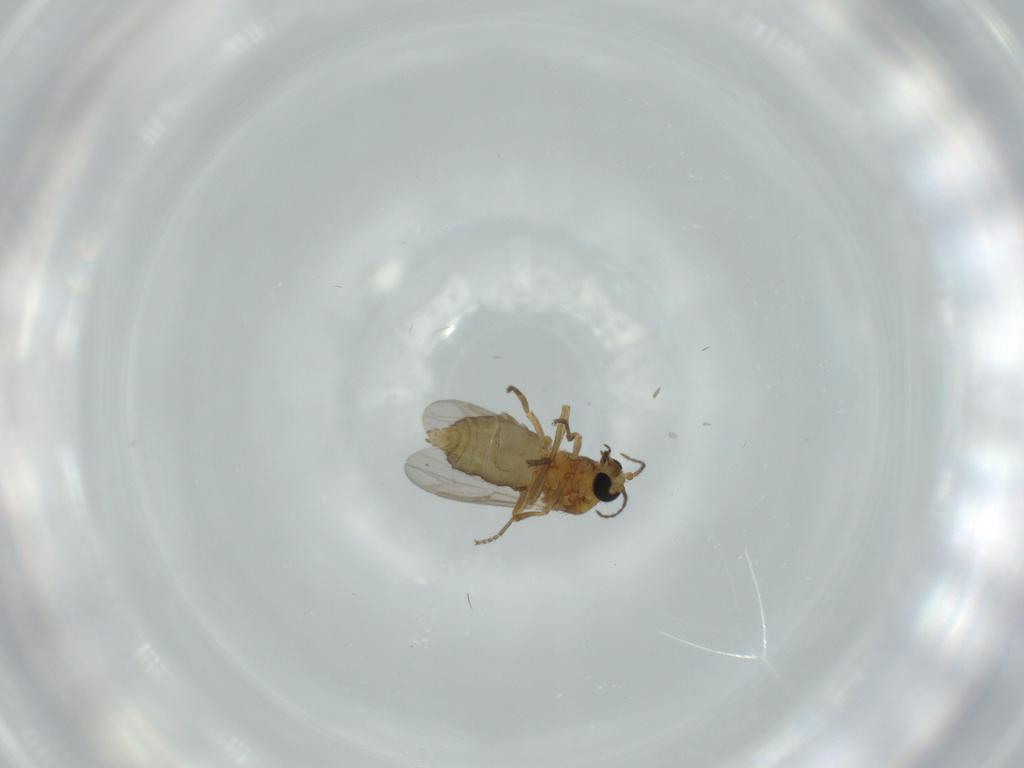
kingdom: Animalia
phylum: Arthropoda
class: Insecta
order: Diptera
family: Ceratopogonidae
